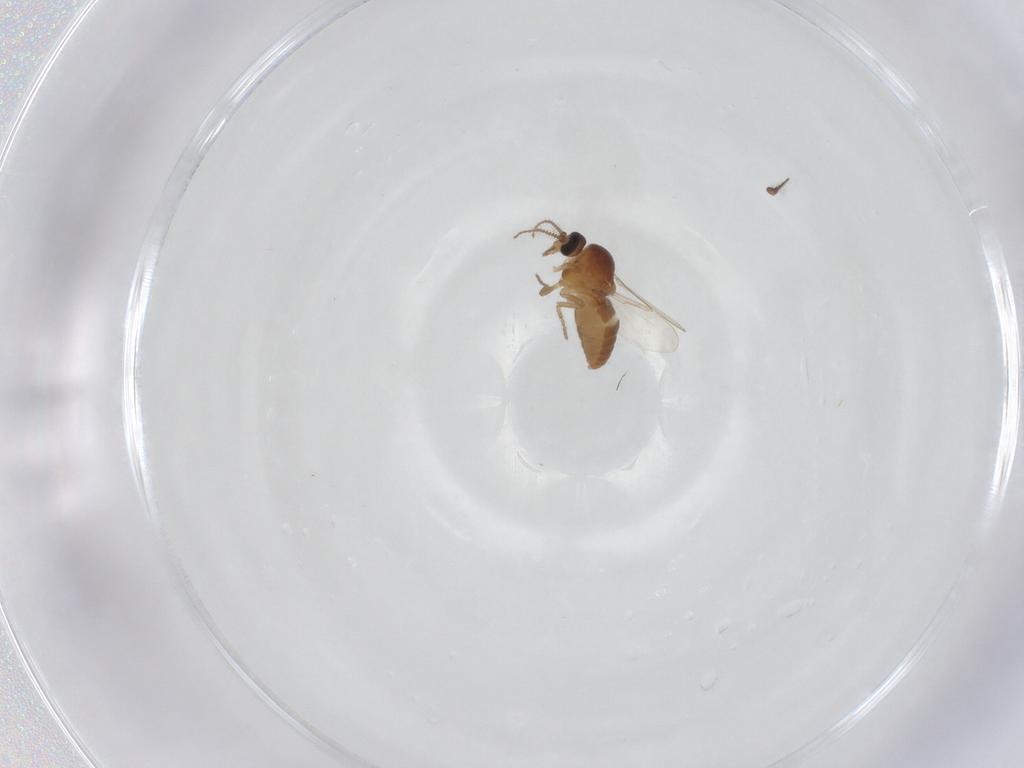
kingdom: Animalia
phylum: Arthropoda
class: Insecta
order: Diptera
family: Ceratopogonidae
